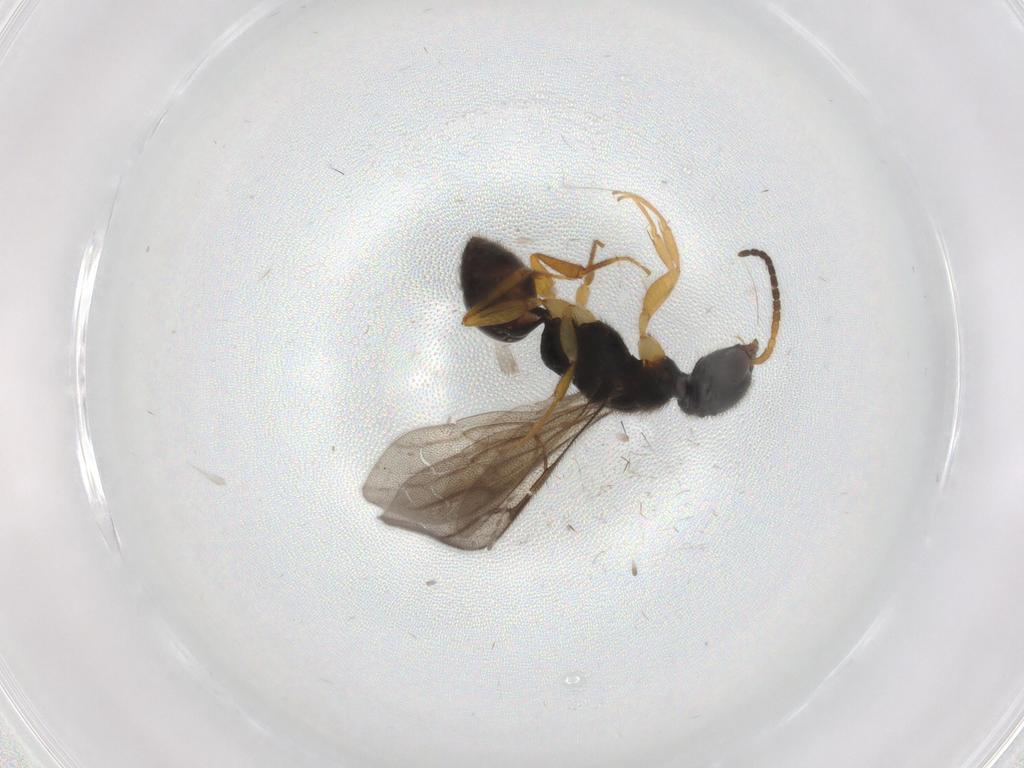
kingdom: Animalia
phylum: Arthropoda
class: Insecta
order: Hymenoptera
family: Bethylidae
